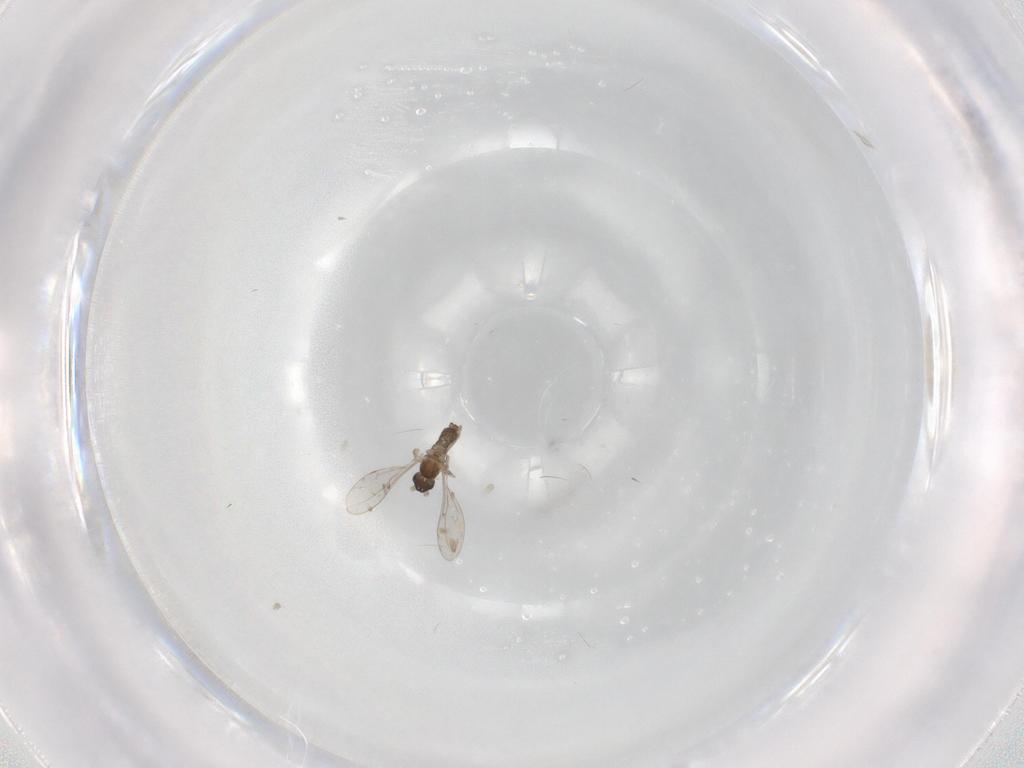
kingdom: Animalia
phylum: Arthropoda
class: Insecta
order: Diptera
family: Cecidomyiidae
